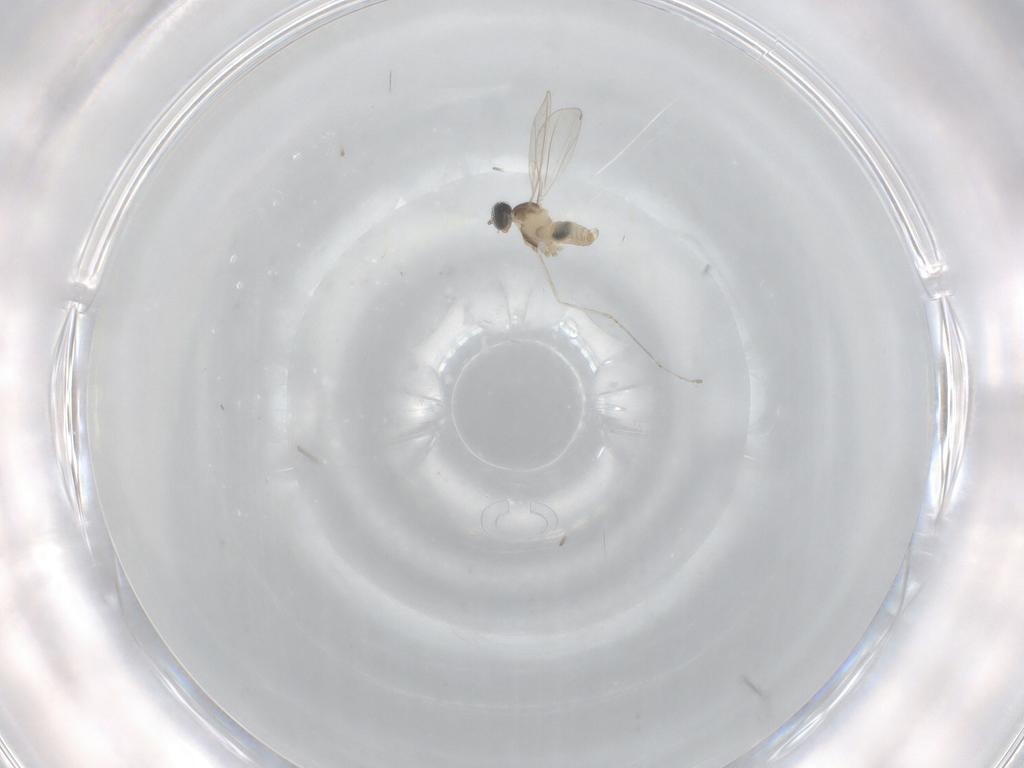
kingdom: Animalia
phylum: Arthropoda
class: Insecta
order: Diptera
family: Cecidomyiidae
